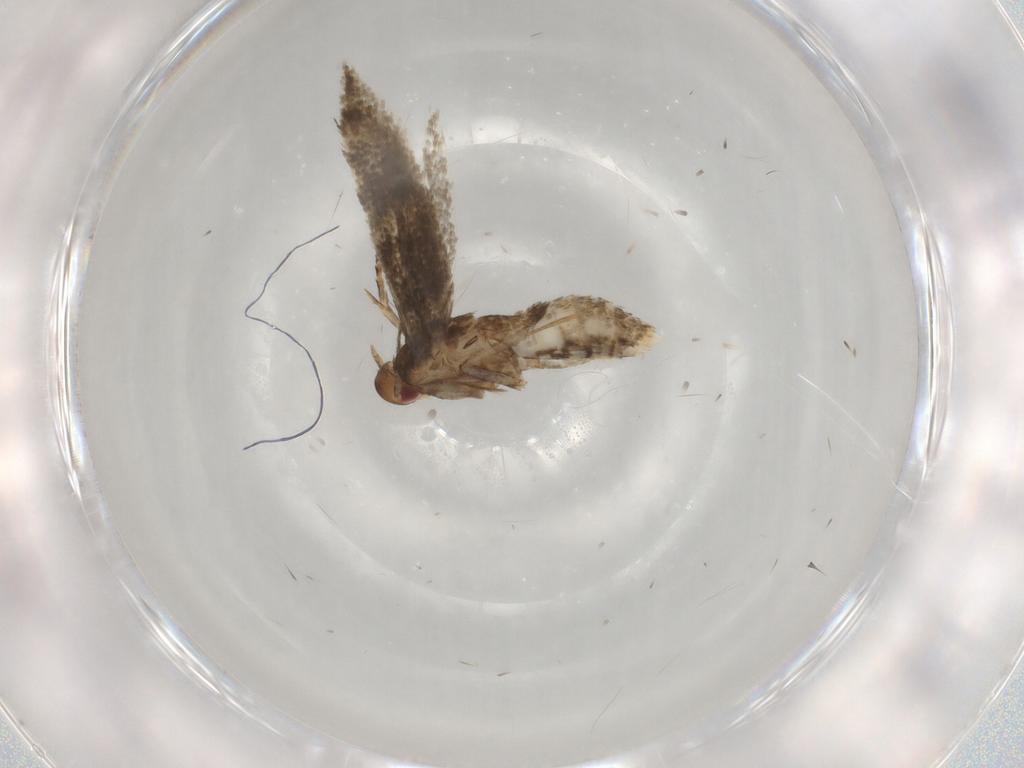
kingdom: Animalia
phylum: Arthropoda
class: Insecta
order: Lepidoptera
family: Momphidae
